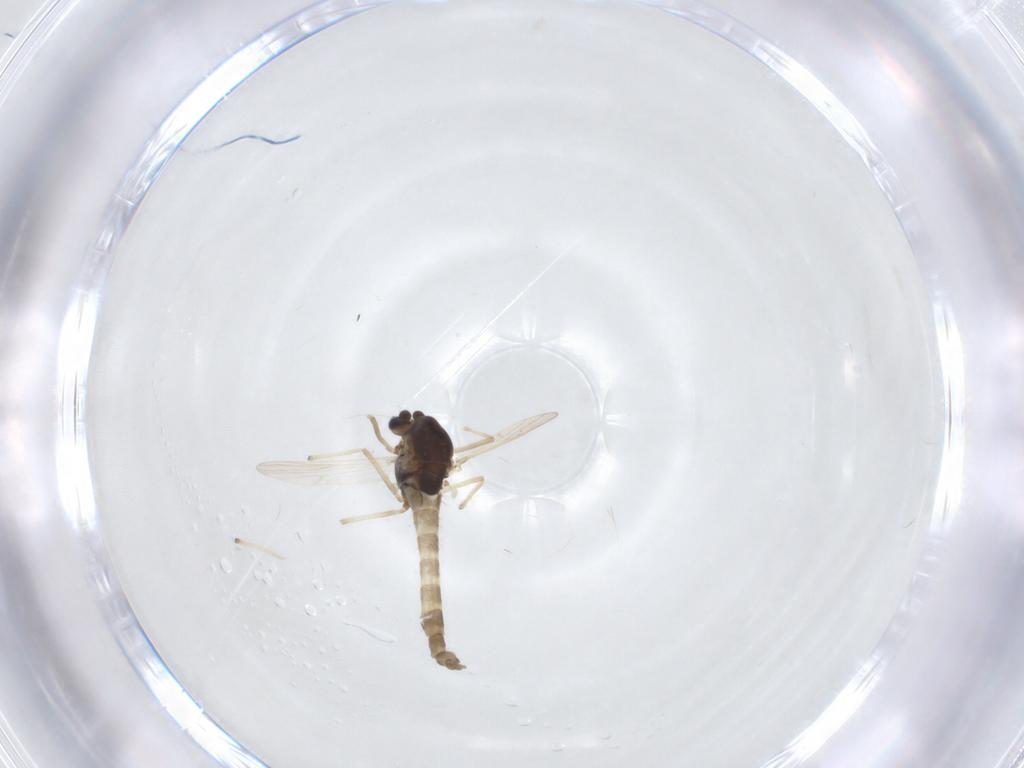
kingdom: Animalia
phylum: Arthropoda
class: Insecta
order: Diptera
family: Chironomidae
